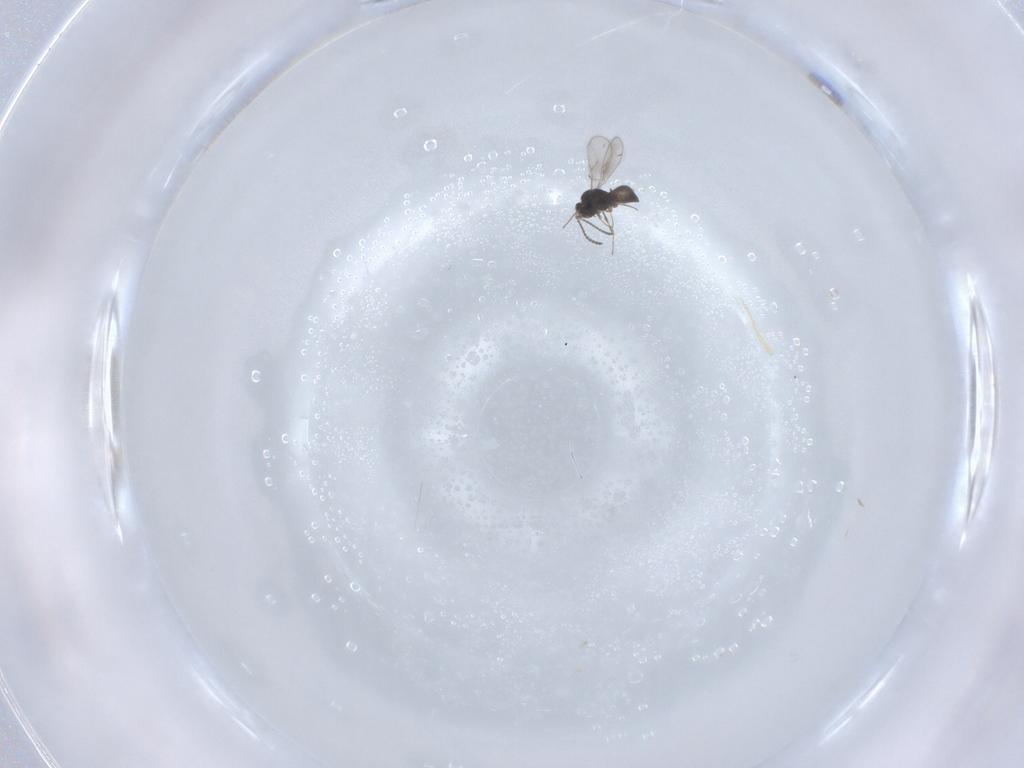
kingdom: Animalia
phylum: Arthropoda
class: Insecta
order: Hymenoptera
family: Scelionidae
